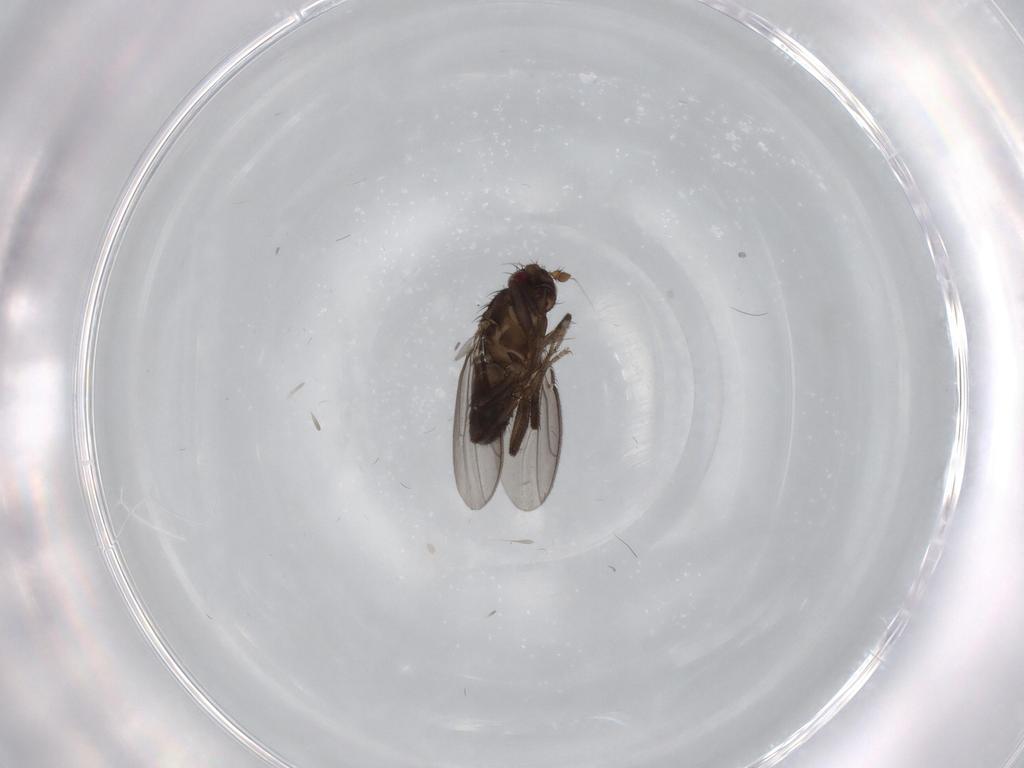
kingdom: Animalia
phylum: Arthropoda
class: Insecta
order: Diptera
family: Sphaeroceridae
